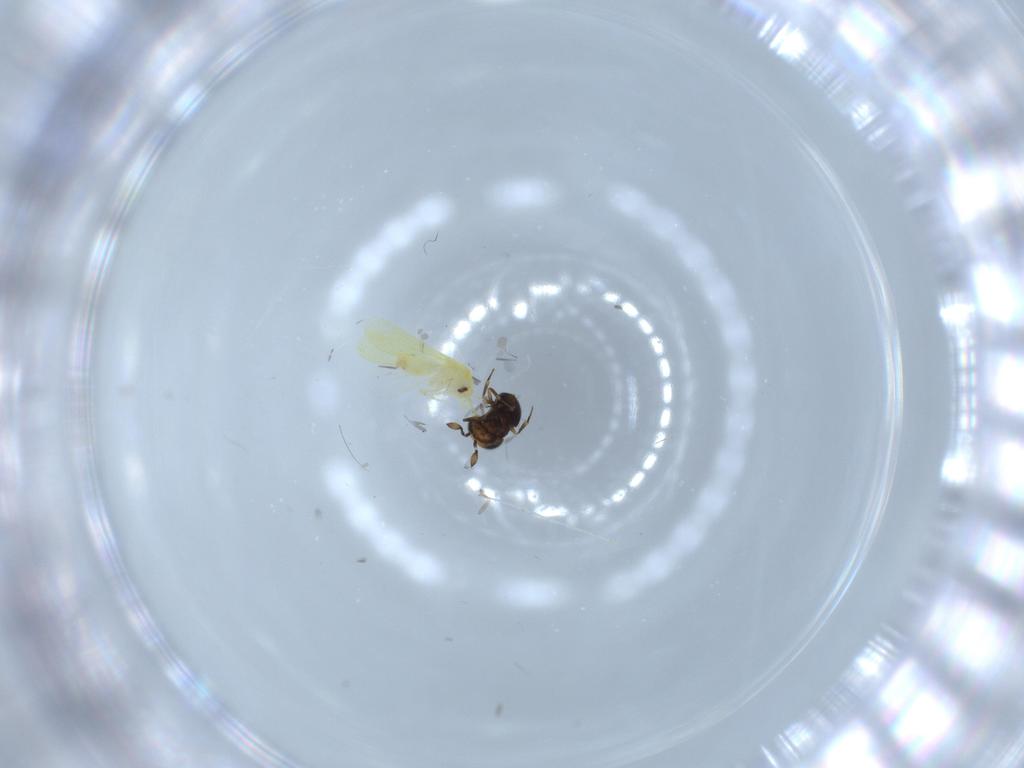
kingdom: Animalia
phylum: Arthropoda
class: Insecta
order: Hemiptera
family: Aleyrodidae
